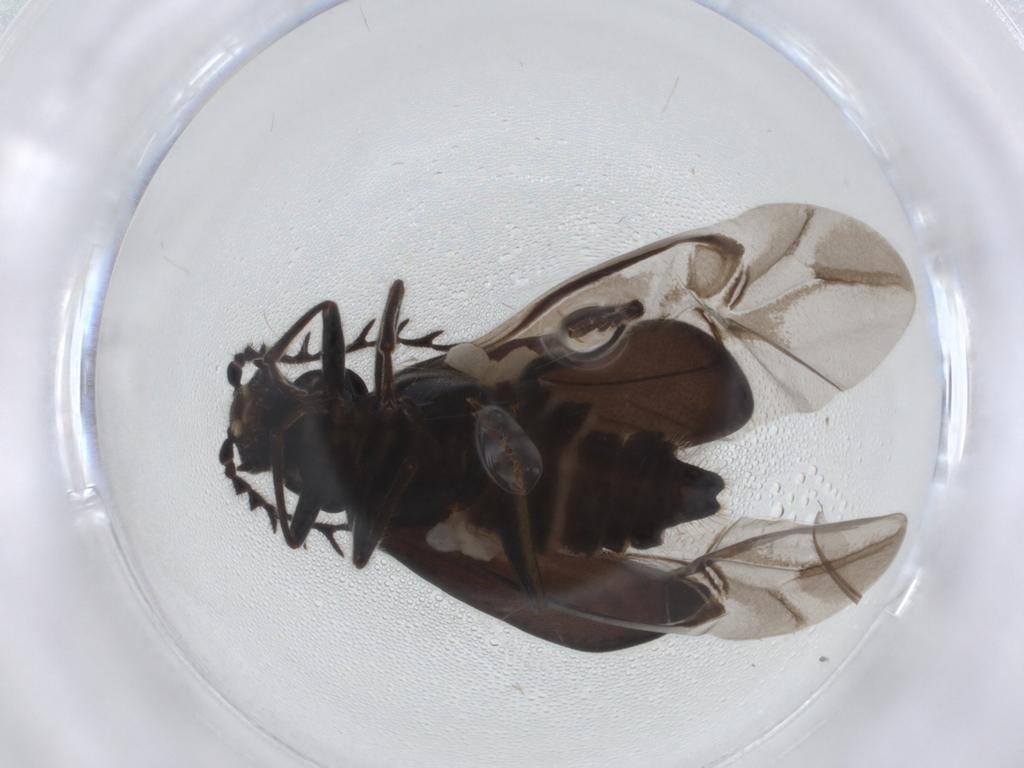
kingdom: Animalia
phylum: Arthropoda
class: Insecta
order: Coleoptera
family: Melyridae
